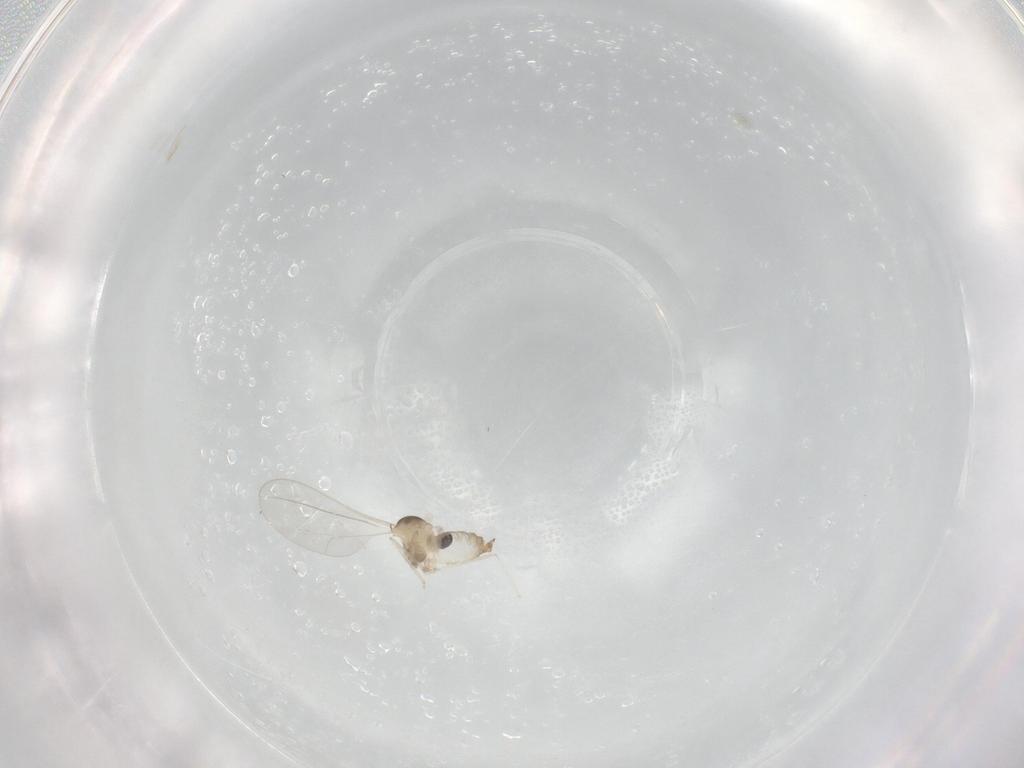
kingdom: Animalia
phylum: Arthropoda
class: Insecta
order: Diptera
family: Cecidomyiidae
